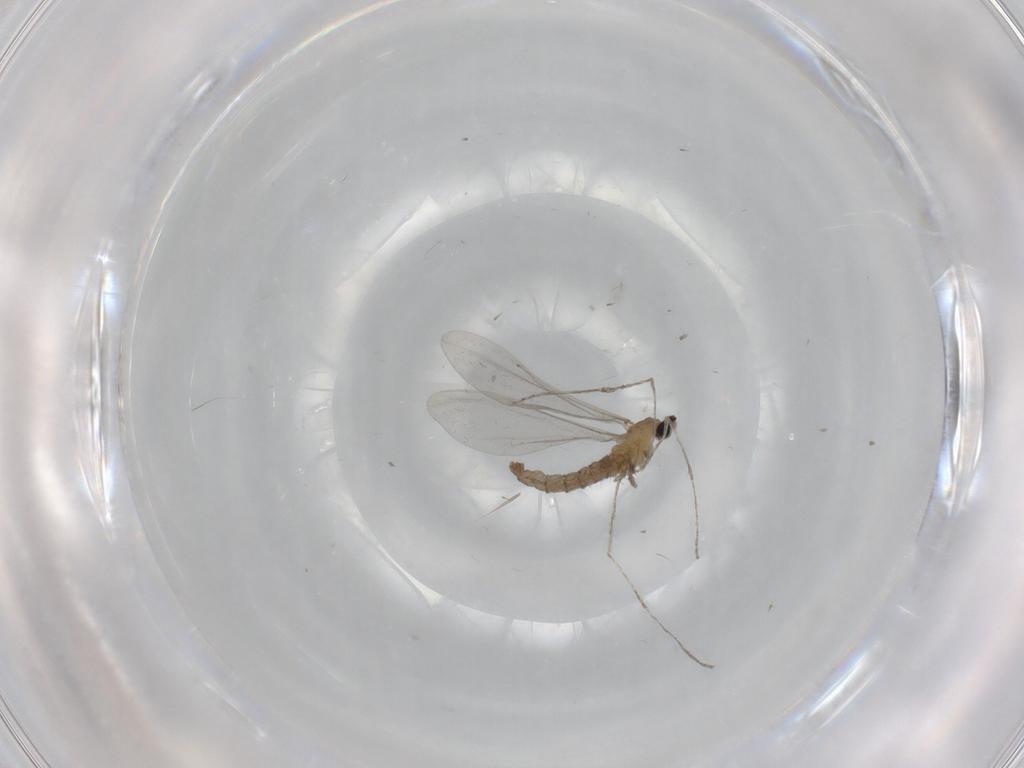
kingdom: Animalia
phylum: Arthropoda
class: Insecta
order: Diptera
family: Cecidomyiidae
